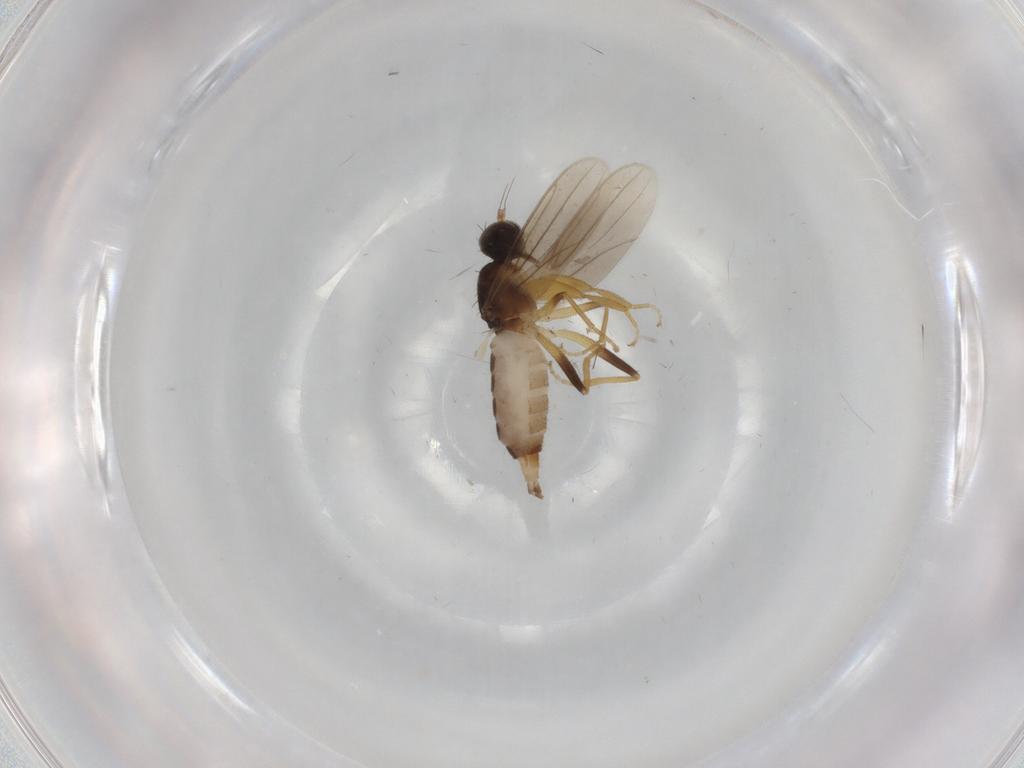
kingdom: Animalia
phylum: Arthropoda
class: Insecta
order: Diptera
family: Hybotidae
